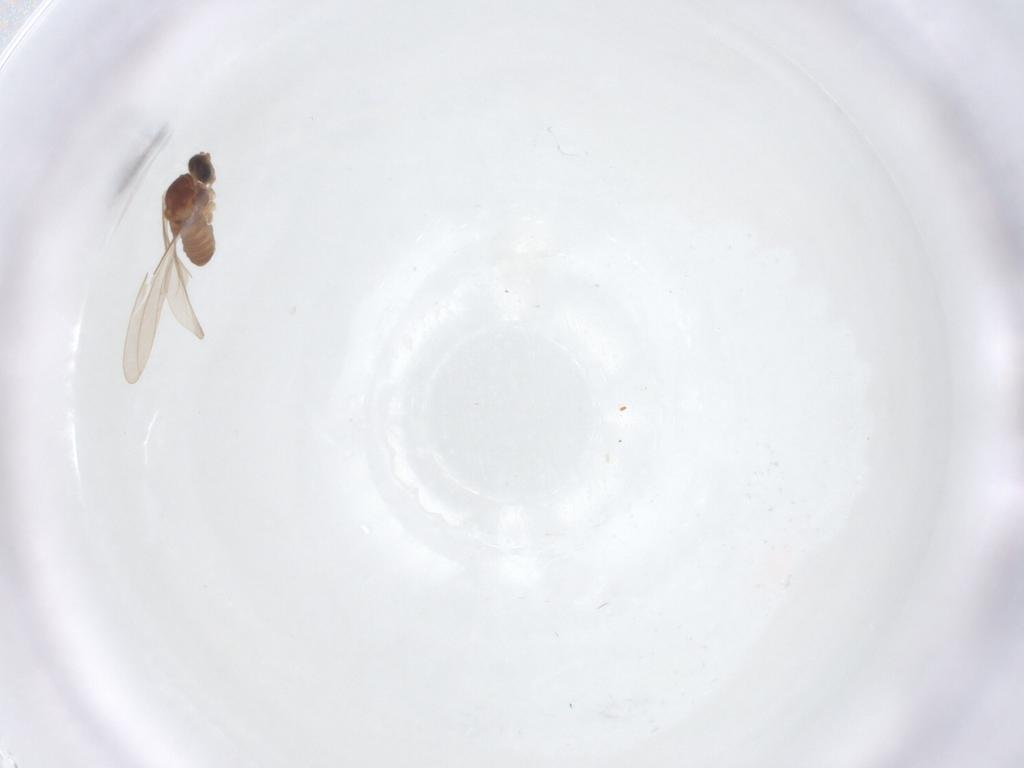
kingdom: Animalia
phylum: Arthropoda
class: Insecta
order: Diptera
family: Cecidomyiidae
